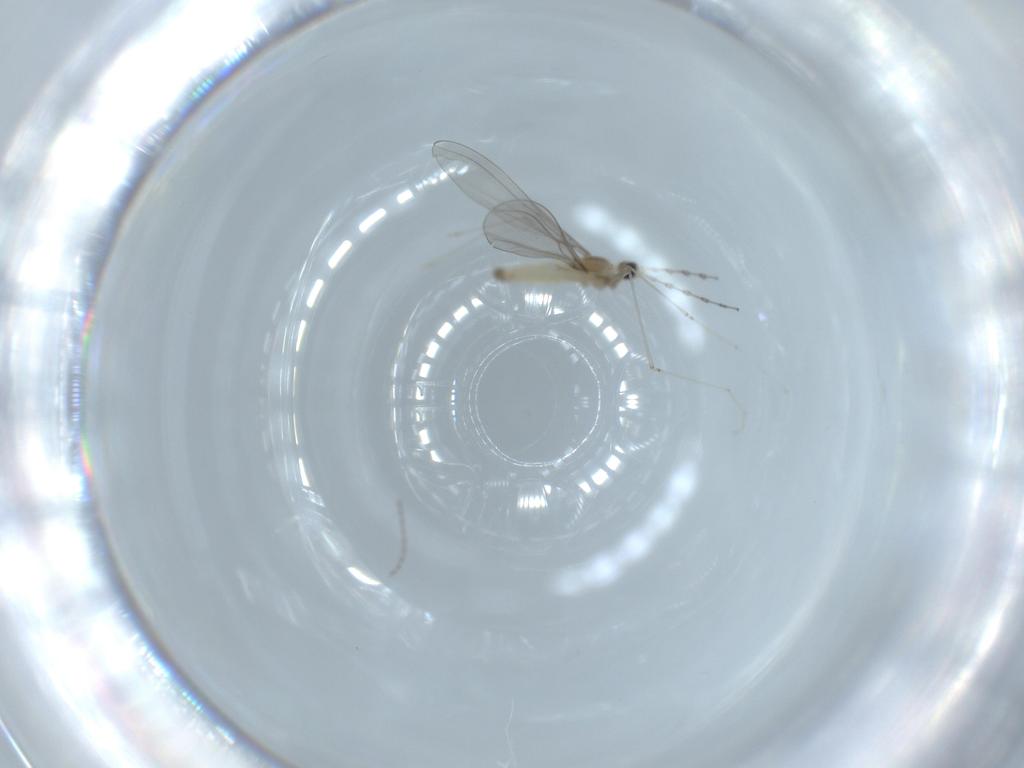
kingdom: Animalia
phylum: Arthropoda
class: Insecta
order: Diptera
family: Cecidomyiidae
